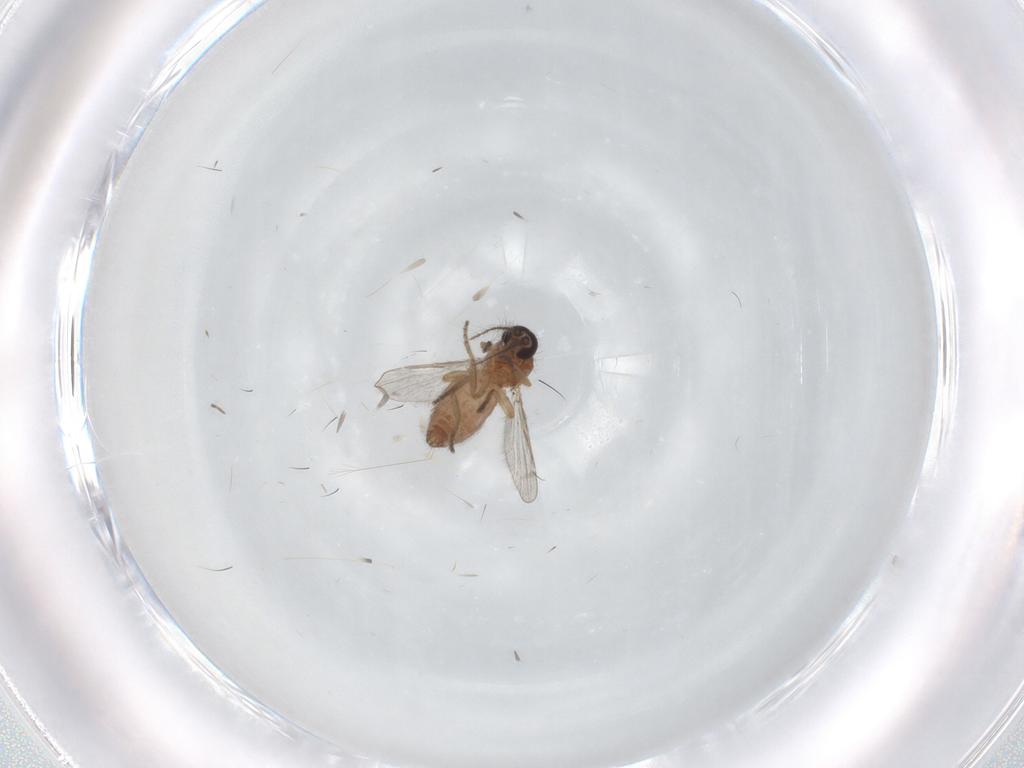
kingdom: Animalia
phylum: Arthropoda
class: Insecta
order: Diptera
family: Ceratopogonidae
